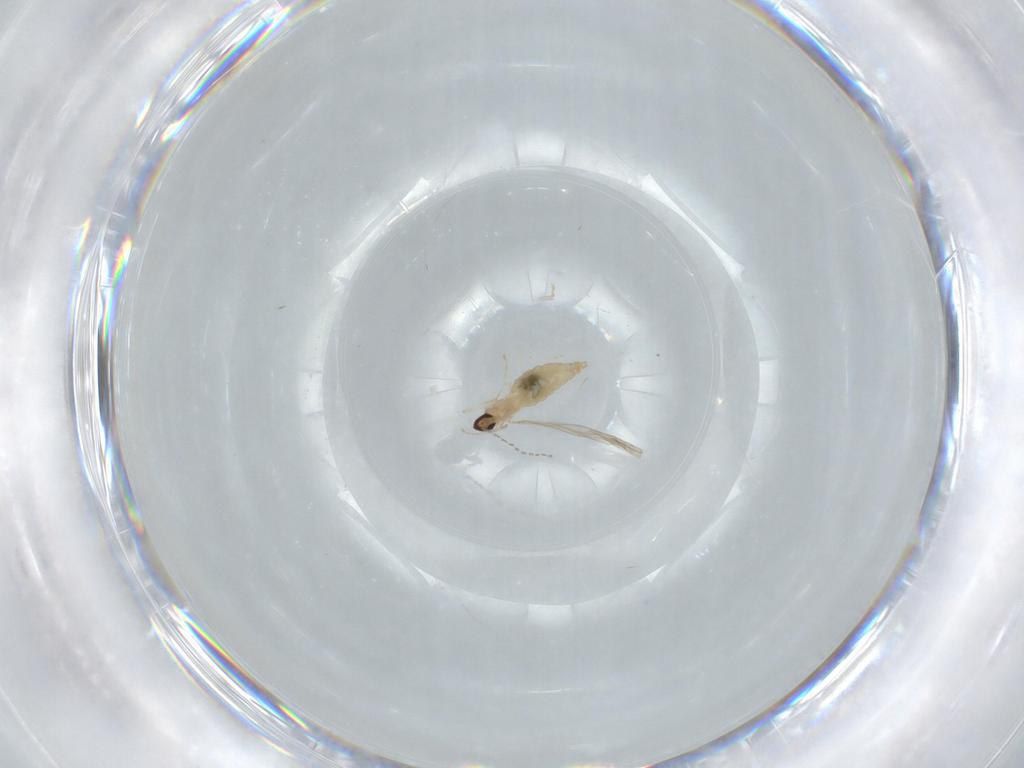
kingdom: Animalia
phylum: Arthropoda
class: Insecta
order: Diptera
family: Cecidomyiidae
